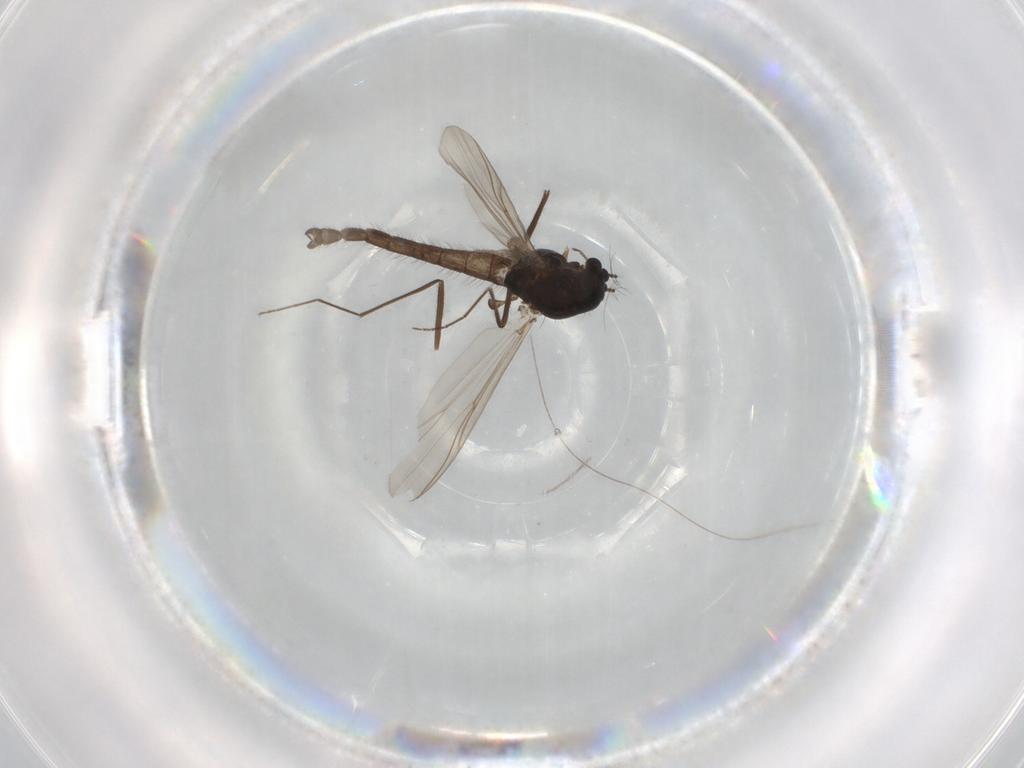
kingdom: Animalia
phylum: Arthropoda
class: Insecta
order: Diptera
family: Chironomidae
